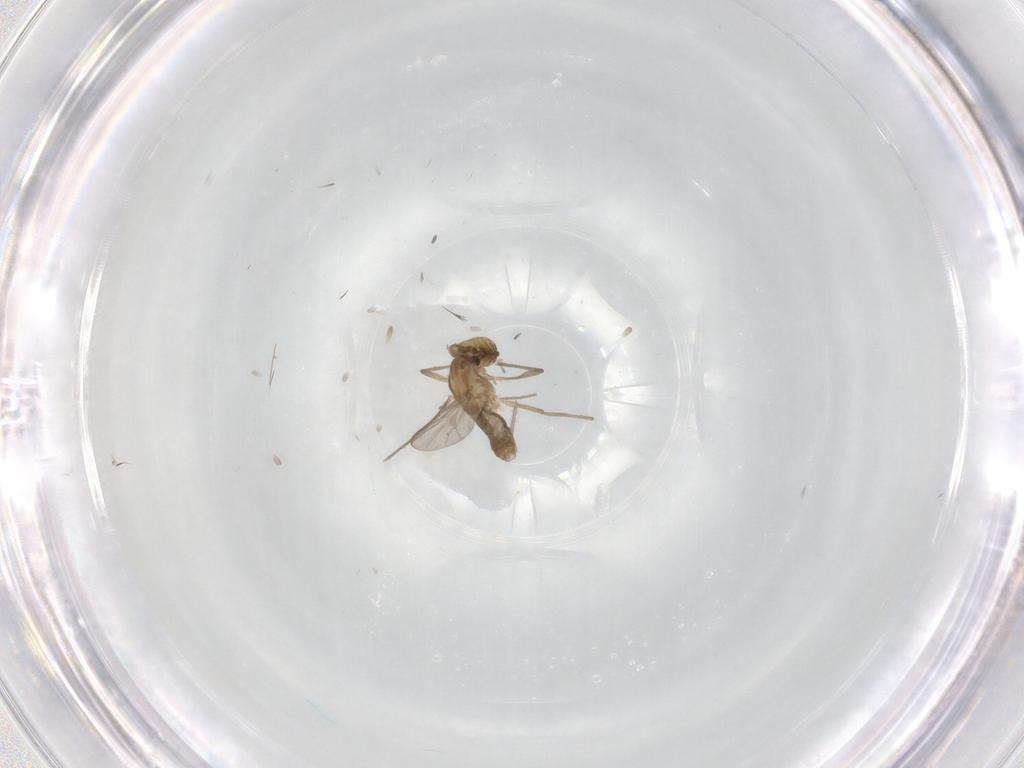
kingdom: Animalia
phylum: Arthropoda
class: Insecta
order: Diptera
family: Ceratopogonidae
